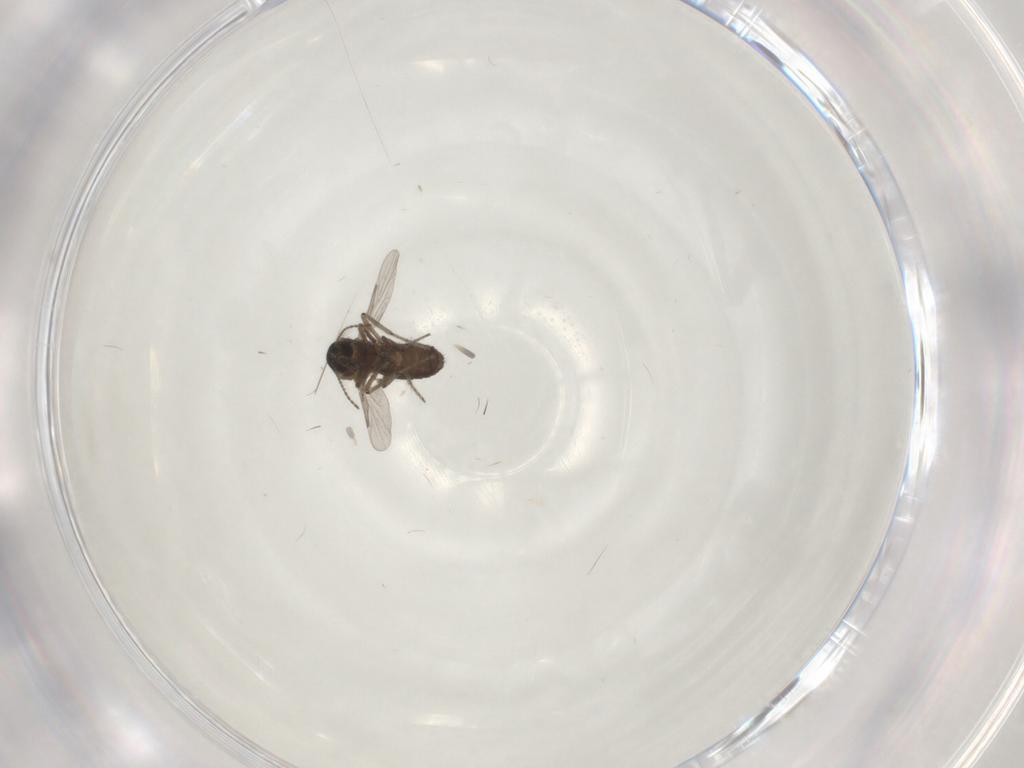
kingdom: Animalia
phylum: Arthropoda
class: Insecta
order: Diptera
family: Ceratopogonidae
